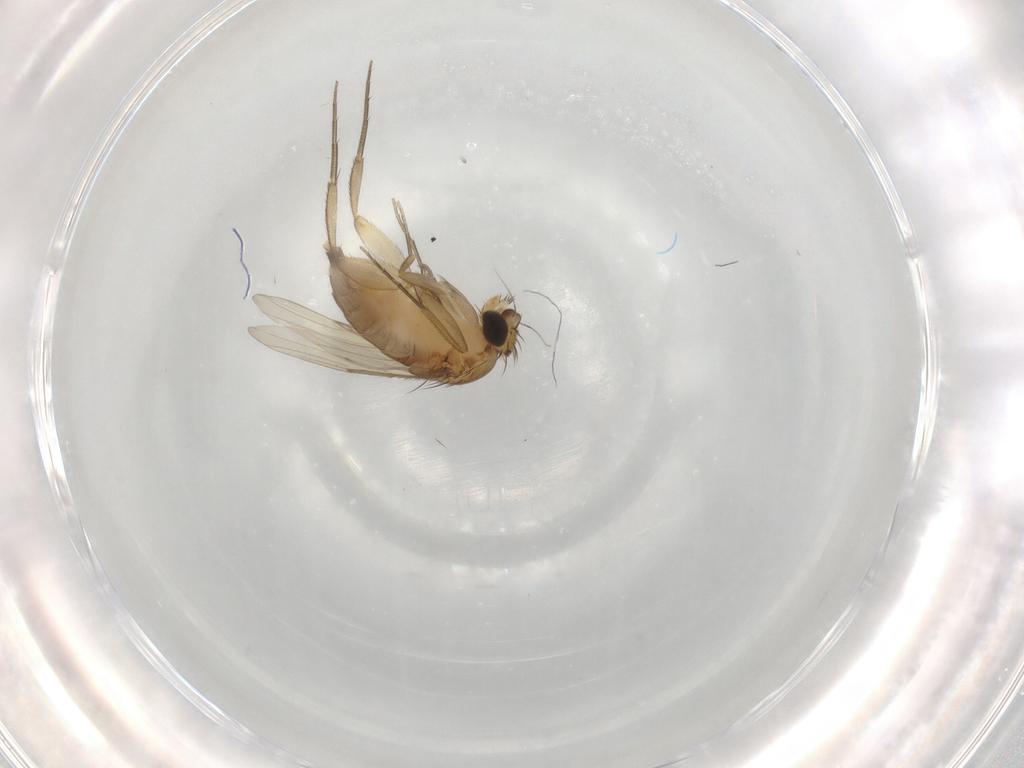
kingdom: Animalia
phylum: Arthropoda
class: Insecta
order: Diptera
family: Phoridae
